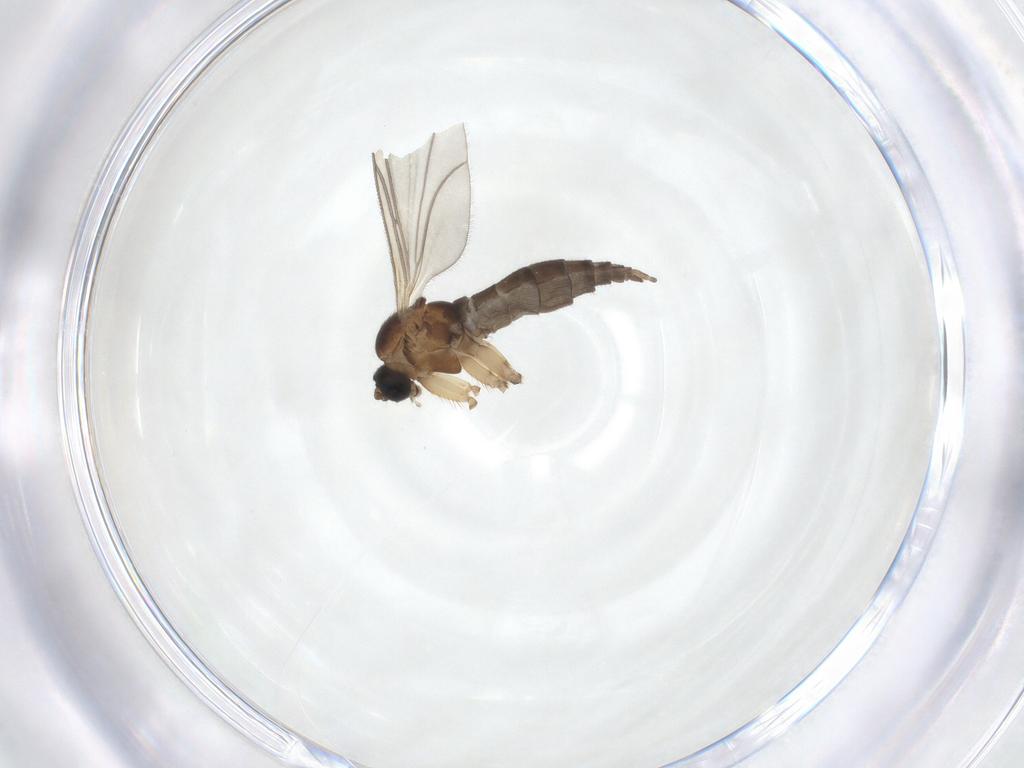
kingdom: Animalia
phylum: Arthropoda
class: Insecta
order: Diptera
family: Sciaridae
